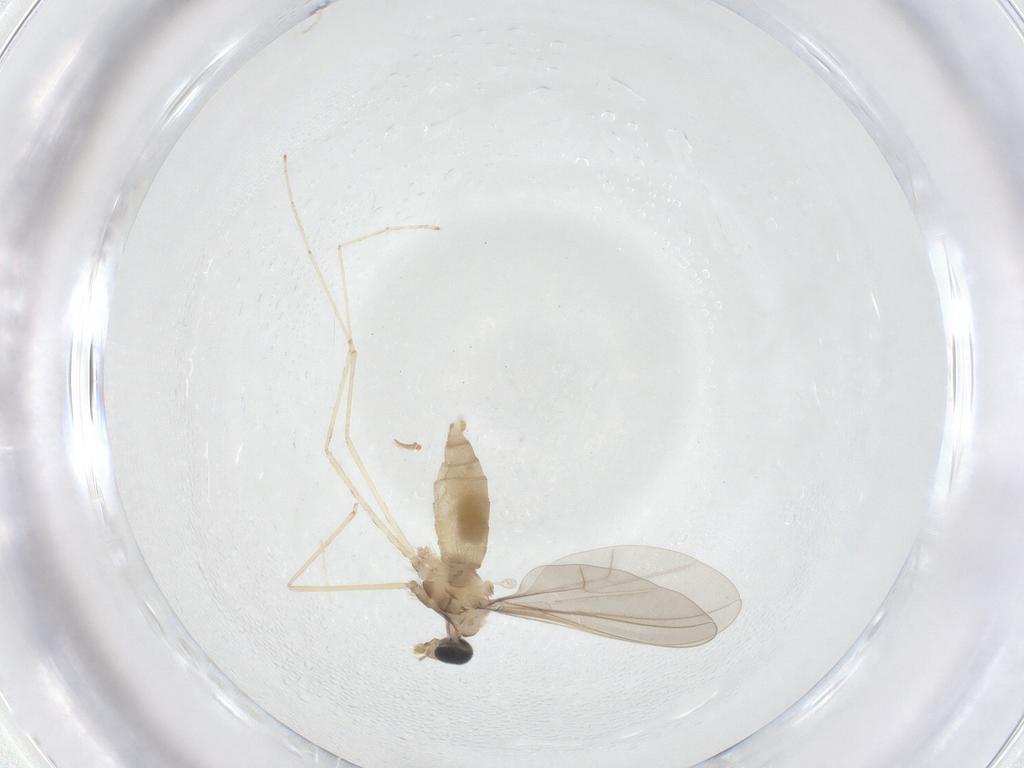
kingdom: Animalia
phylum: Arthropoda
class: Insecta
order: Diptera
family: Cecidomyiidae
